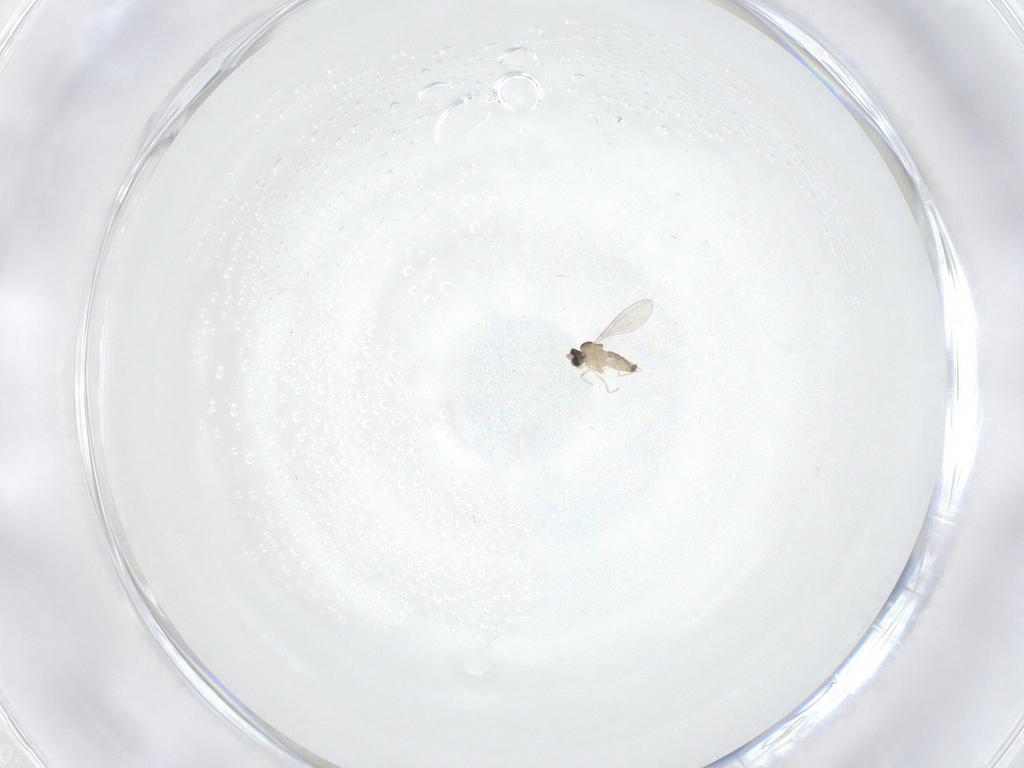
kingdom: Animalia
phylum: Arthropoda
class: Insecta
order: Diptera
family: Cecidomyiidae
